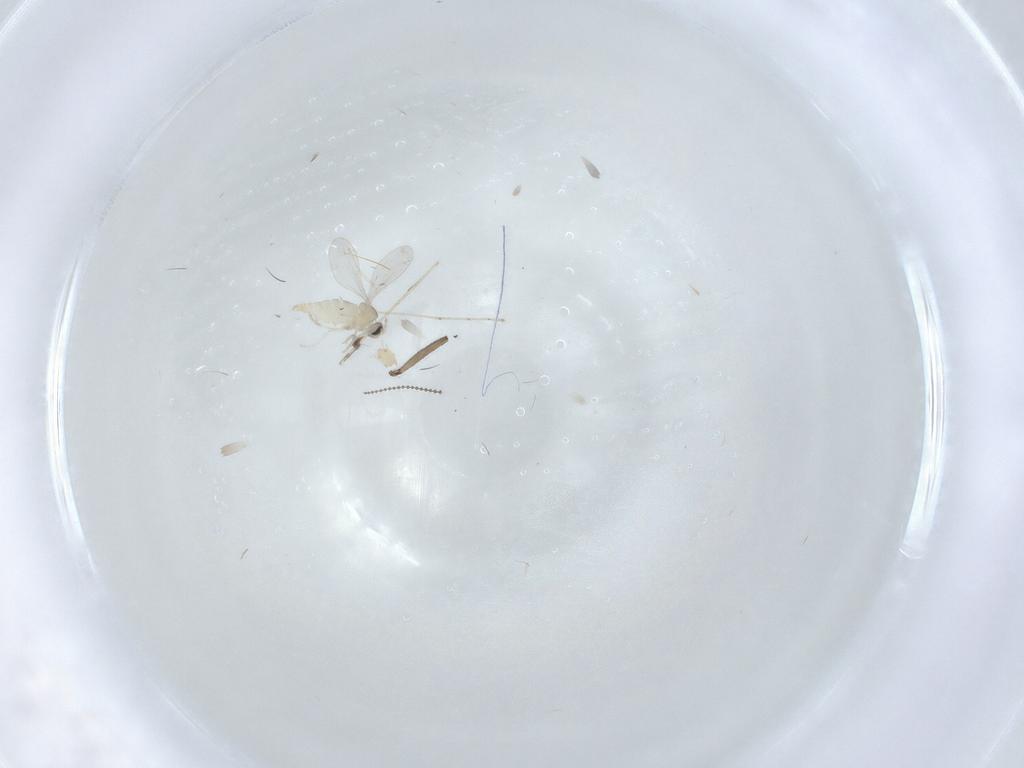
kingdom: Animalia
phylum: Arthropoda
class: Insecta
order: Diptera
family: Cecidomyiidae
